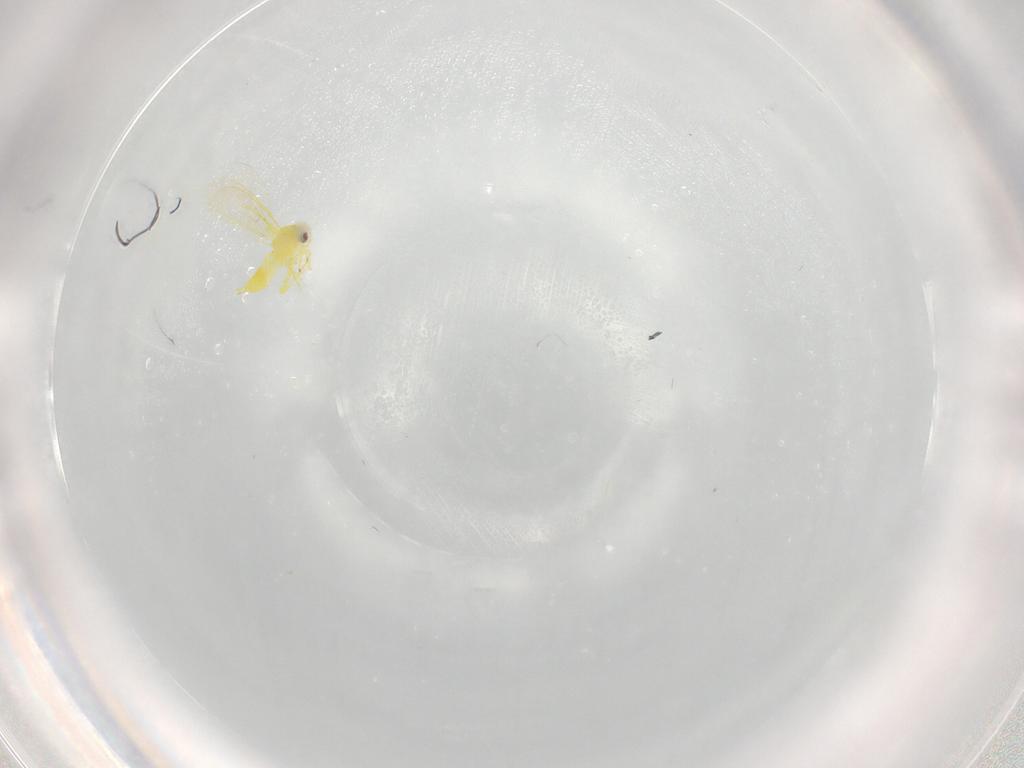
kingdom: Animalia
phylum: Arthropoda
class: Insecta
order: Hemiptera
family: Aleyrodidae
